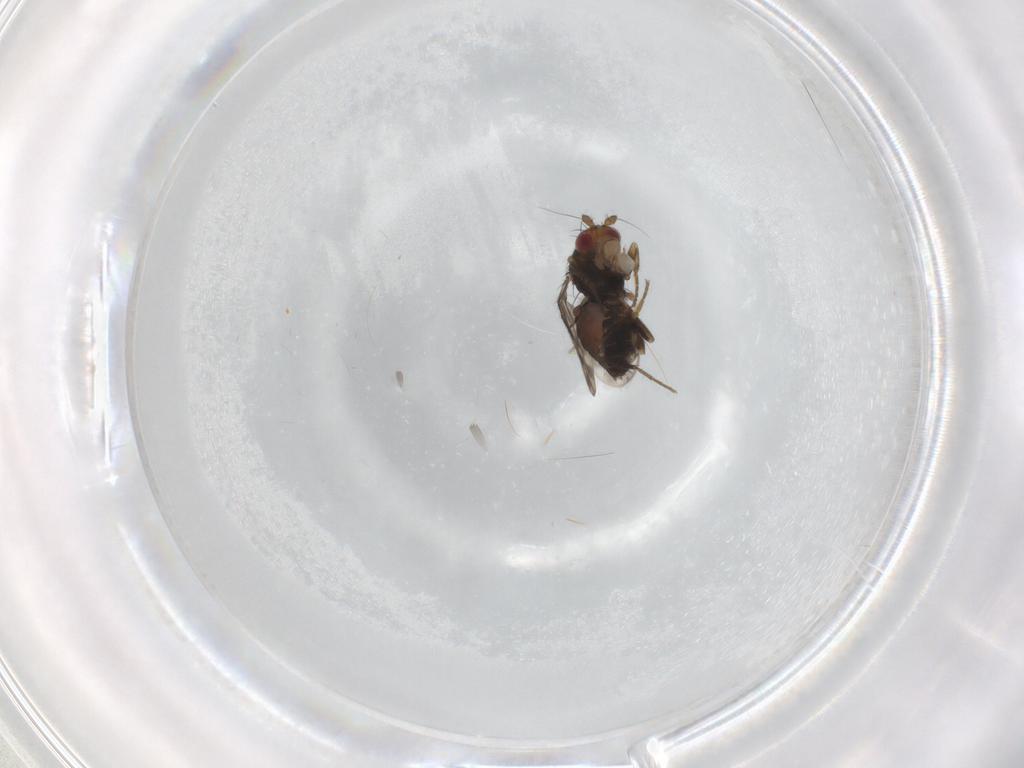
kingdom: Animalia
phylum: Arthropoda
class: Insecta
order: Diptera
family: Sphaeroceridae
